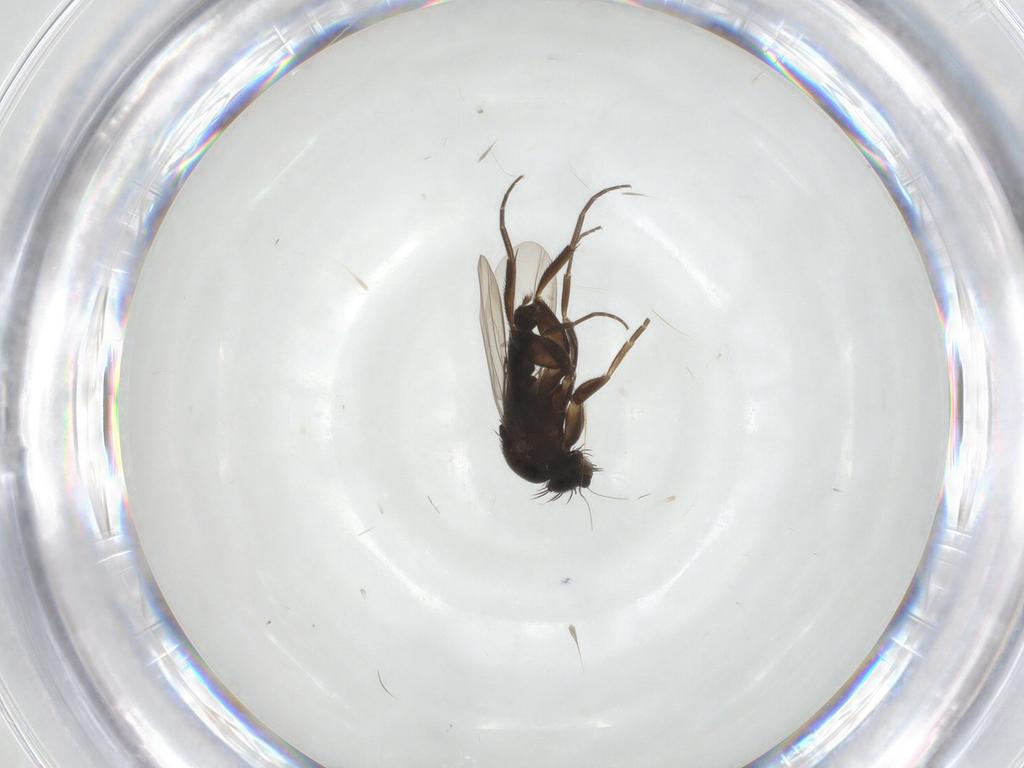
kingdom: Animalia
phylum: Arthropoda
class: Insecta
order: Diptera
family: Phoridae
